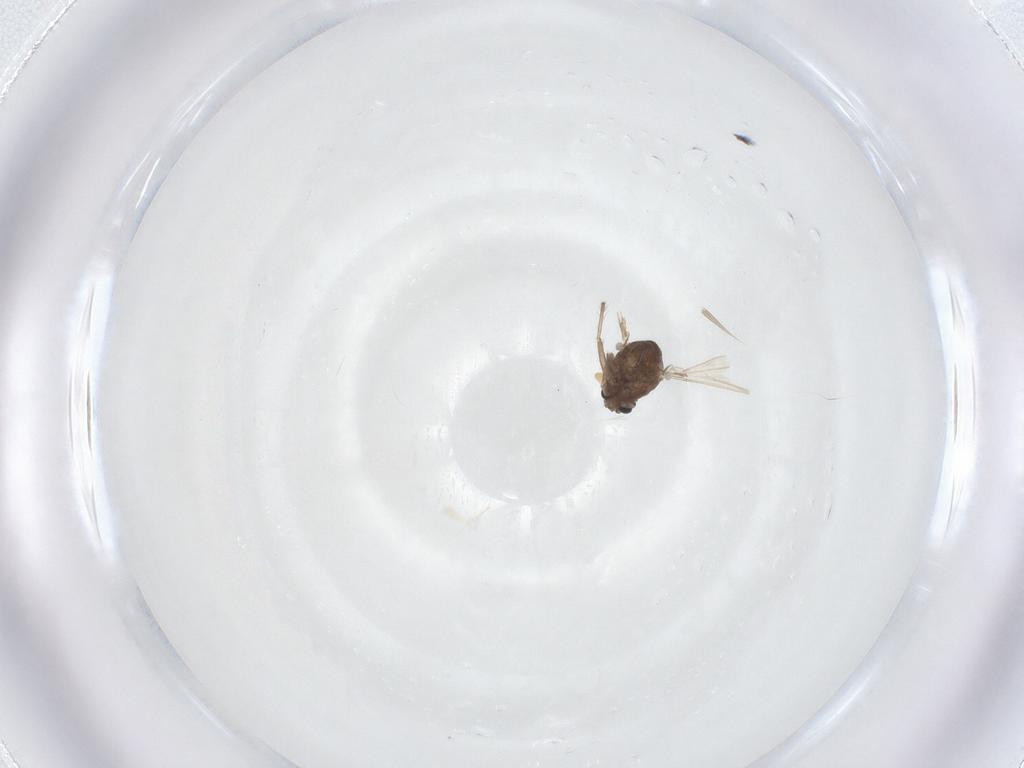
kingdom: Animalia
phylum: Arthropoda
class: Insecta
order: Diptera
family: Chironomidae
